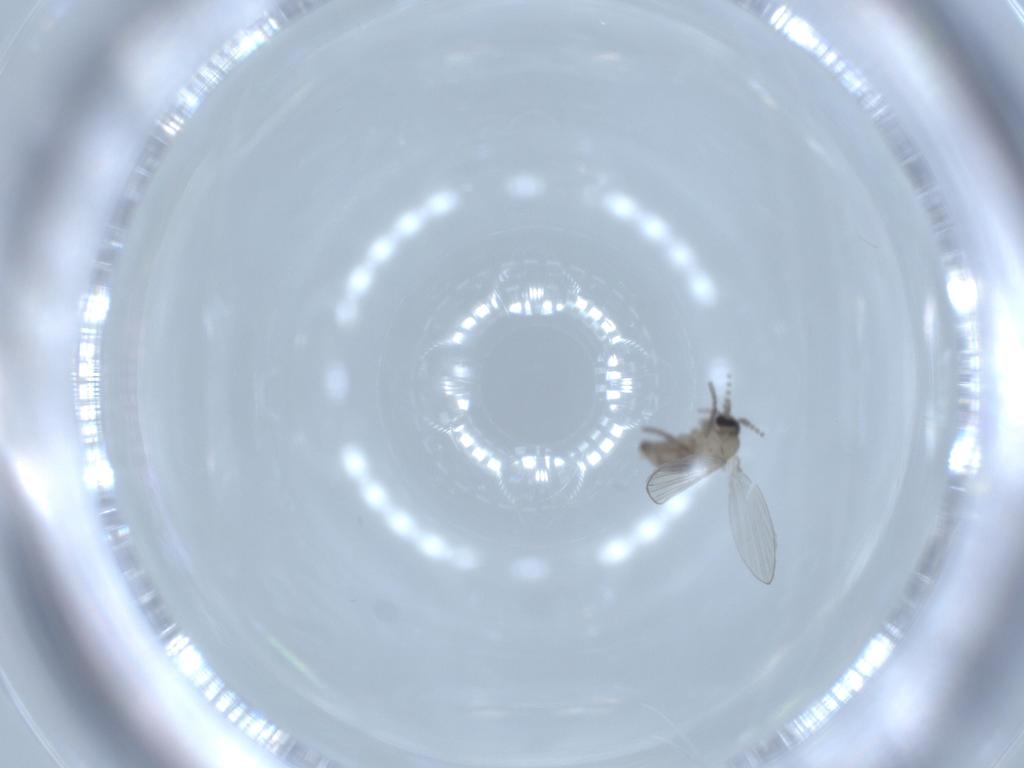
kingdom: Animalia
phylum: Arthropoda
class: Insecta
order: Diptera
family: Psychodidae
